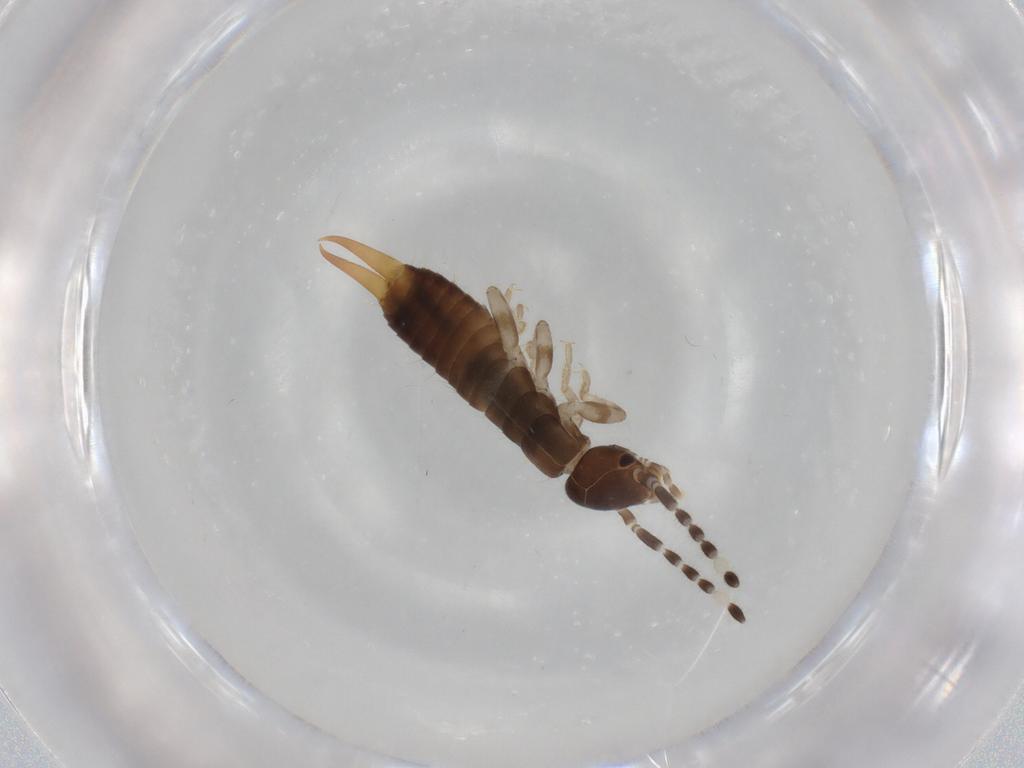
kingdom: Animalia
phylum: Arthropoda
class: Insecta
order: Dermaptera
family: Anisolabididae
